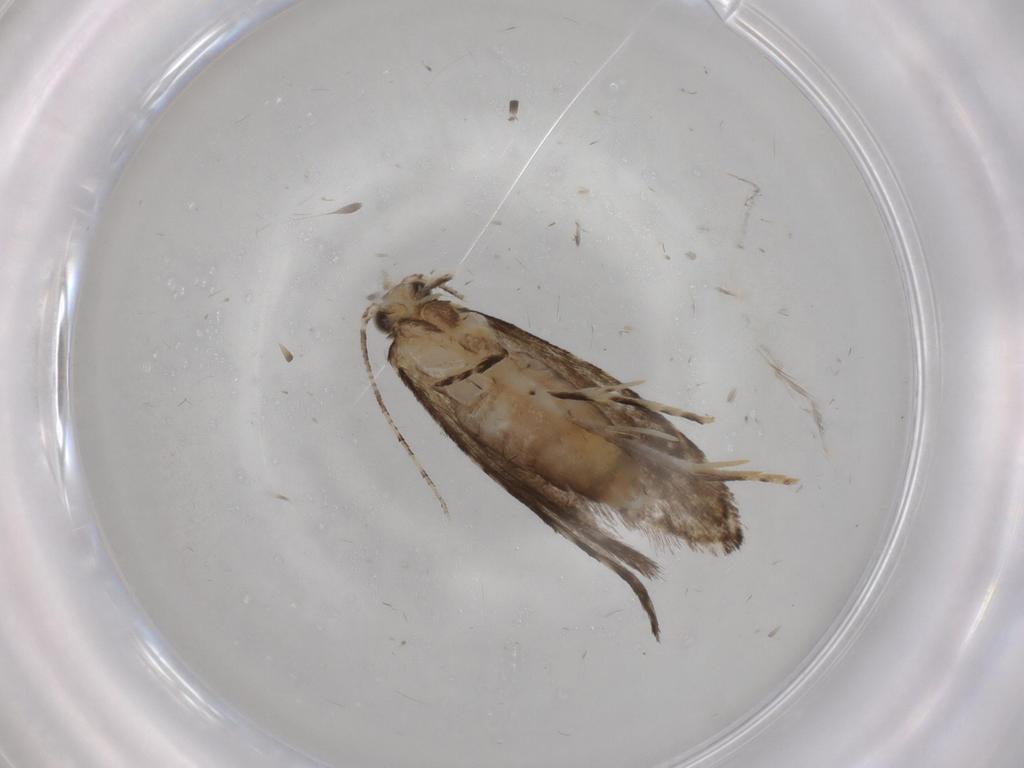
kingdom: Animalia
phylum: Arthropoda
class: Insecta
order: Lepidoptera
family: Tineidae
